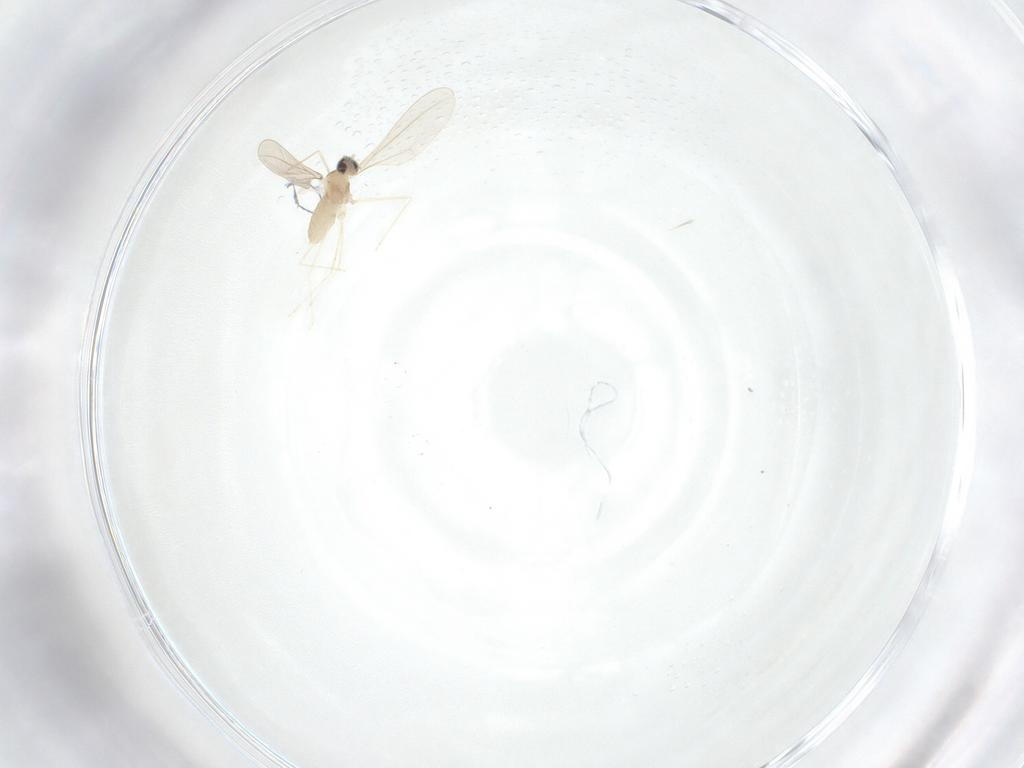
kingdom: Animalia
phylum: Arthropoda
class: Insecta
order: Diptera
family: Cecidomyiidae
